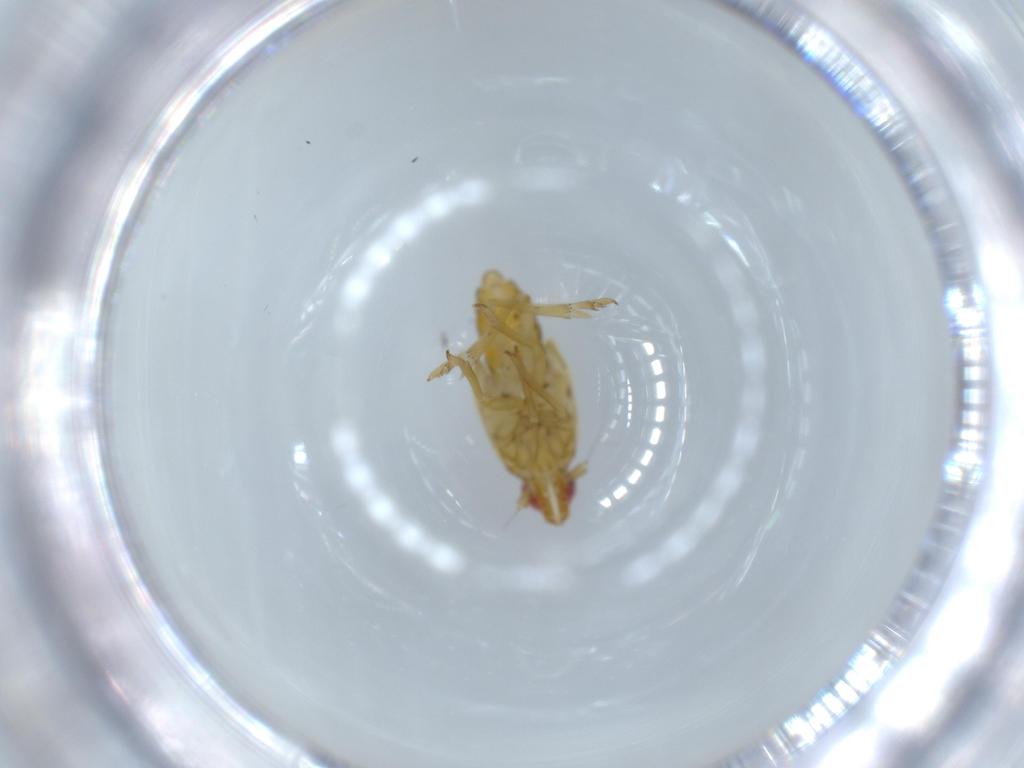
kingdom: Animalia
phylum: Arthropoda
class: Insecta
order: Hemiptera
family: Delphacidae
